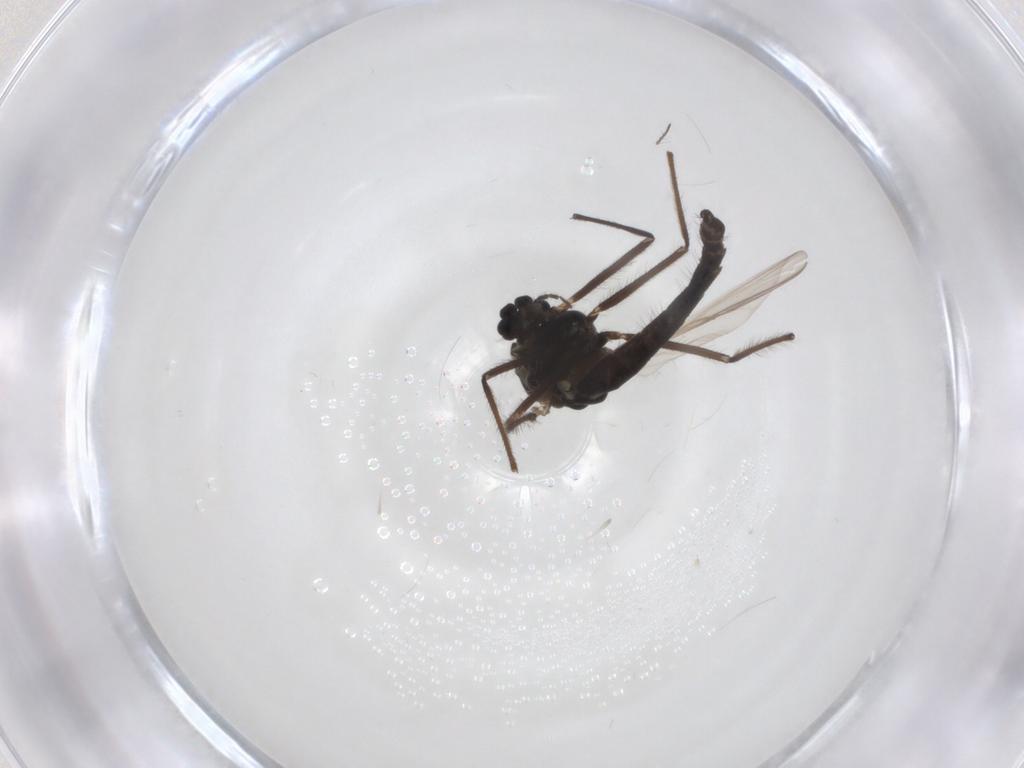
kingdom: Animalia
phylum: Arthropoda
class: Insecta
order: Diptera
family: Chironomidae
